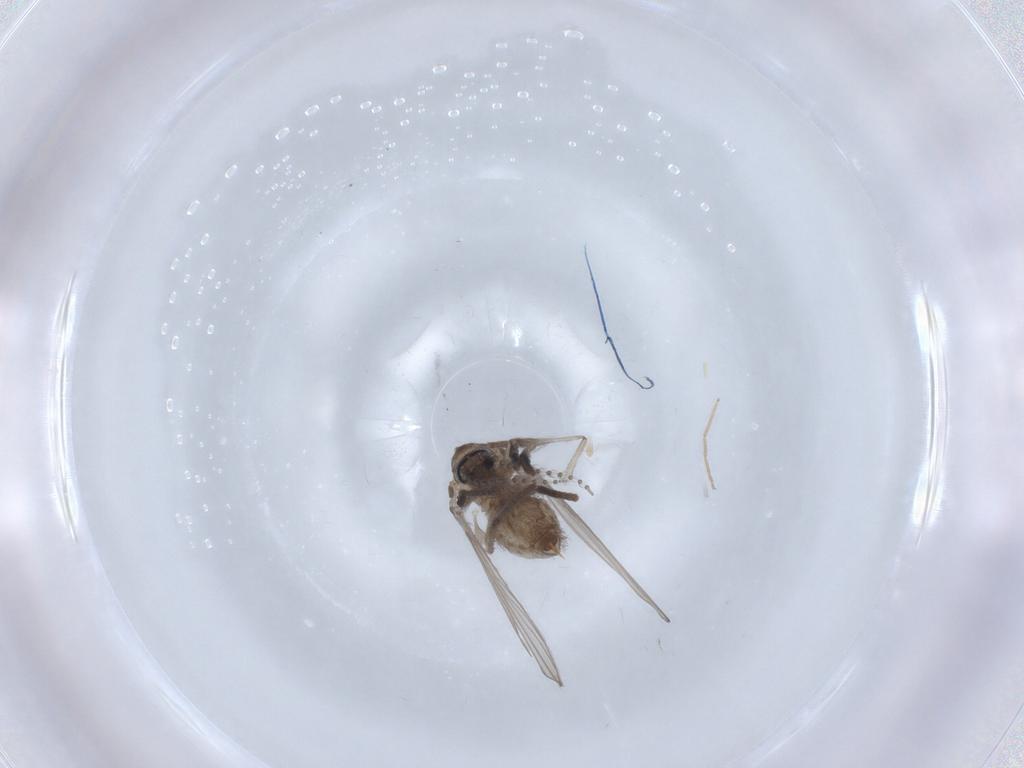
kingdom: Animalia
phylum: Arthropoda
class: Insecta
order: Diptera
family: Psychodidae
